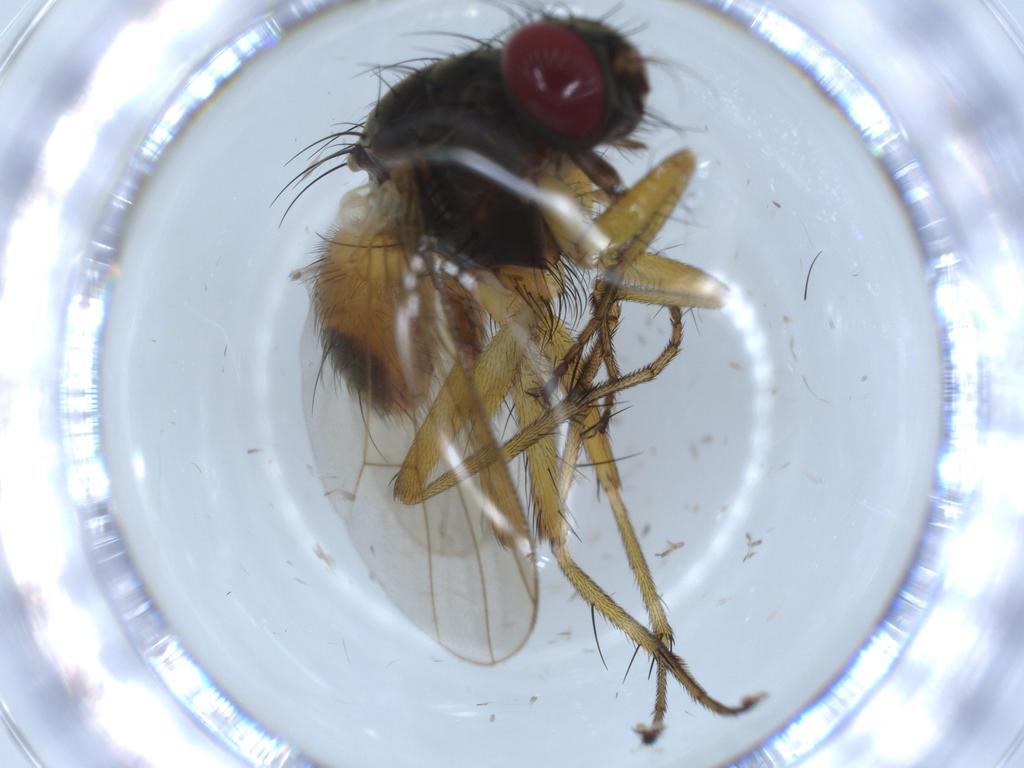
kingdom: Animalia
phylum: Arthropoda
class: Insecta
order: Diptera
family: Muscidae
